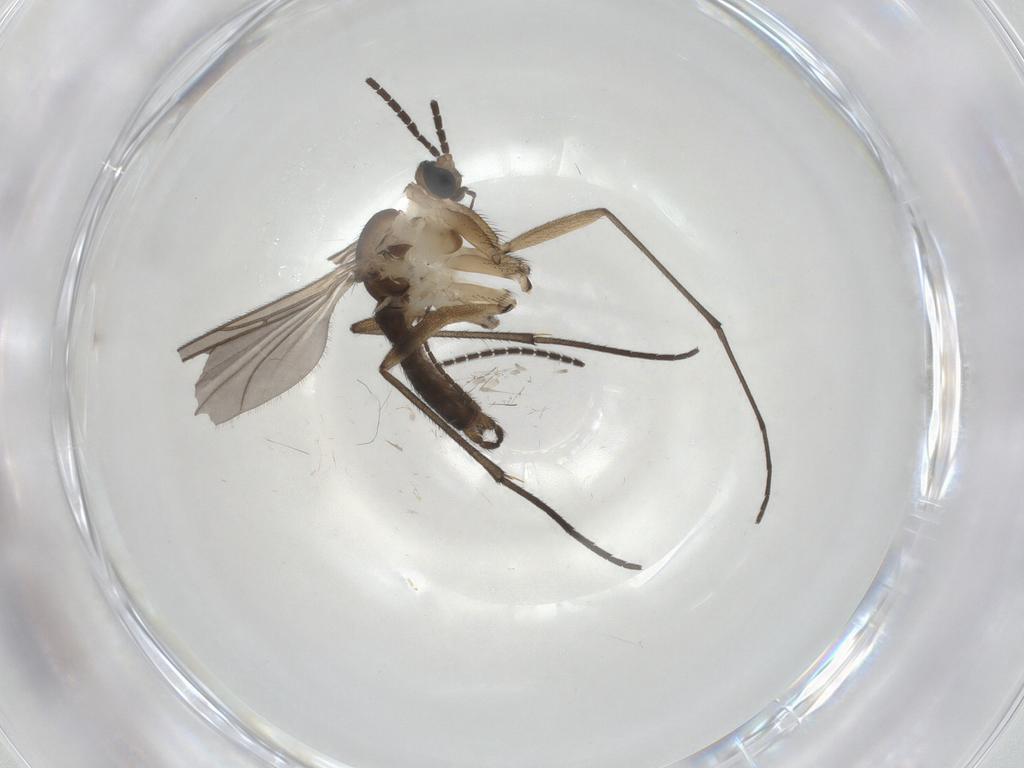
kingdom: Animalia
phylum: Arthropoda
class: Insecta
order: Diptera
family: Sciaridae
